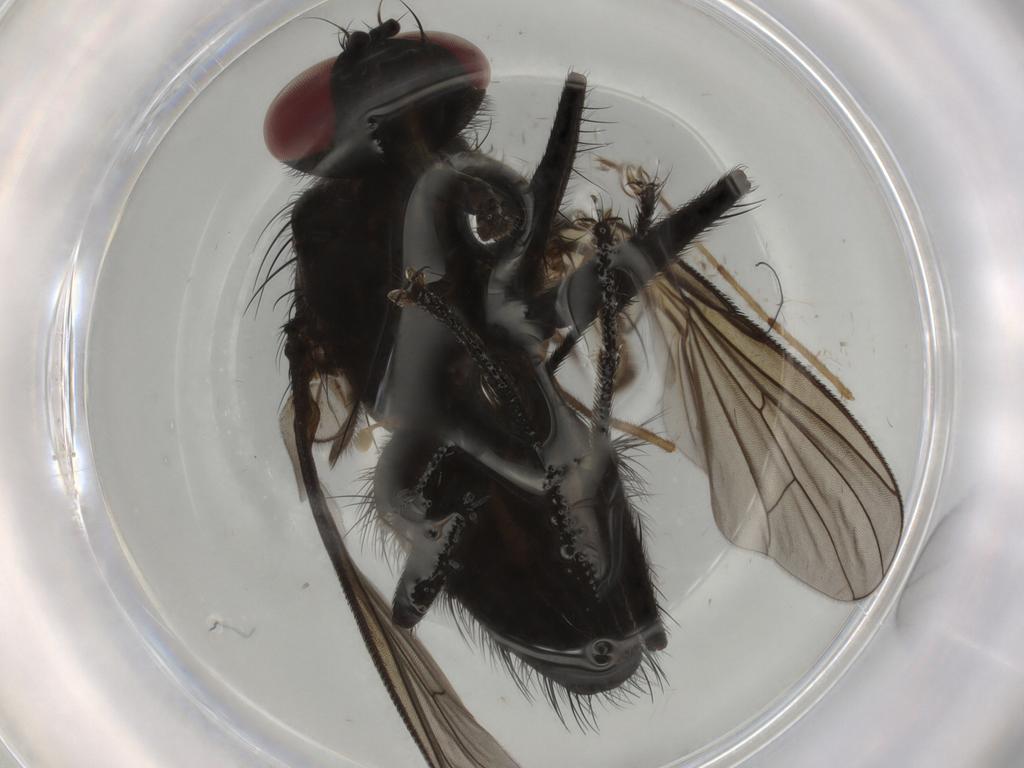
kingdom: Animalia
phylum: Arthropoda
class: Insecta
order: Diptera
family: Muscidae
